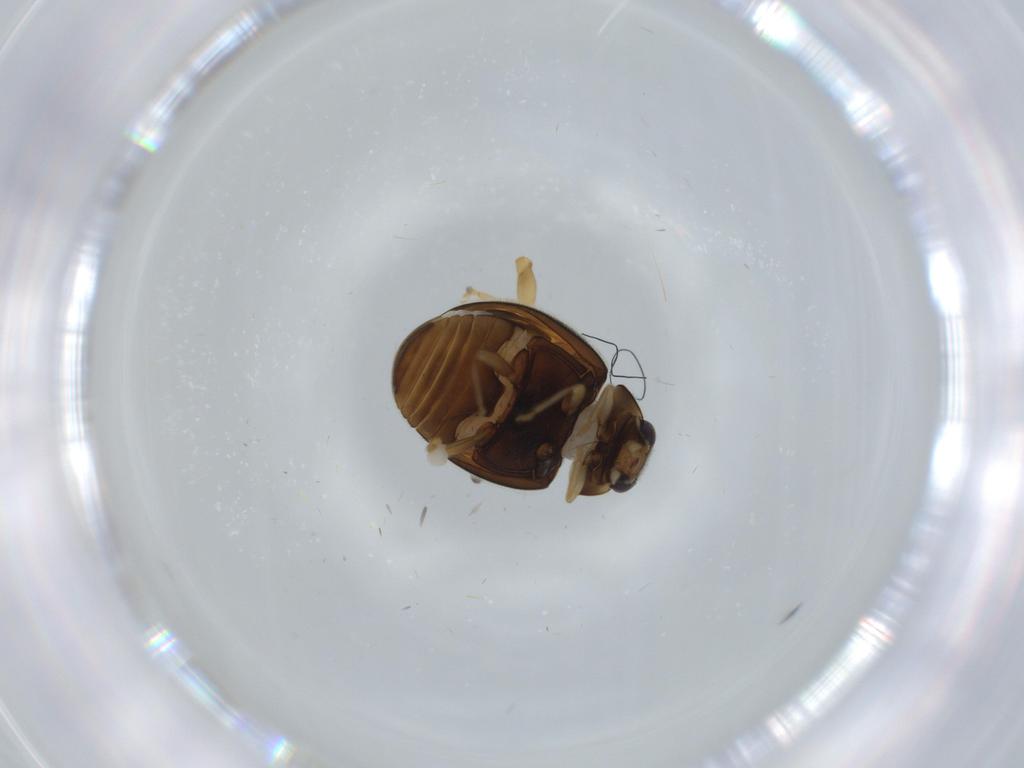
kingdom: Animalia
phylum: Arthropoda
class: Insecta
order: Coleoptera
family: Coccinellidae
